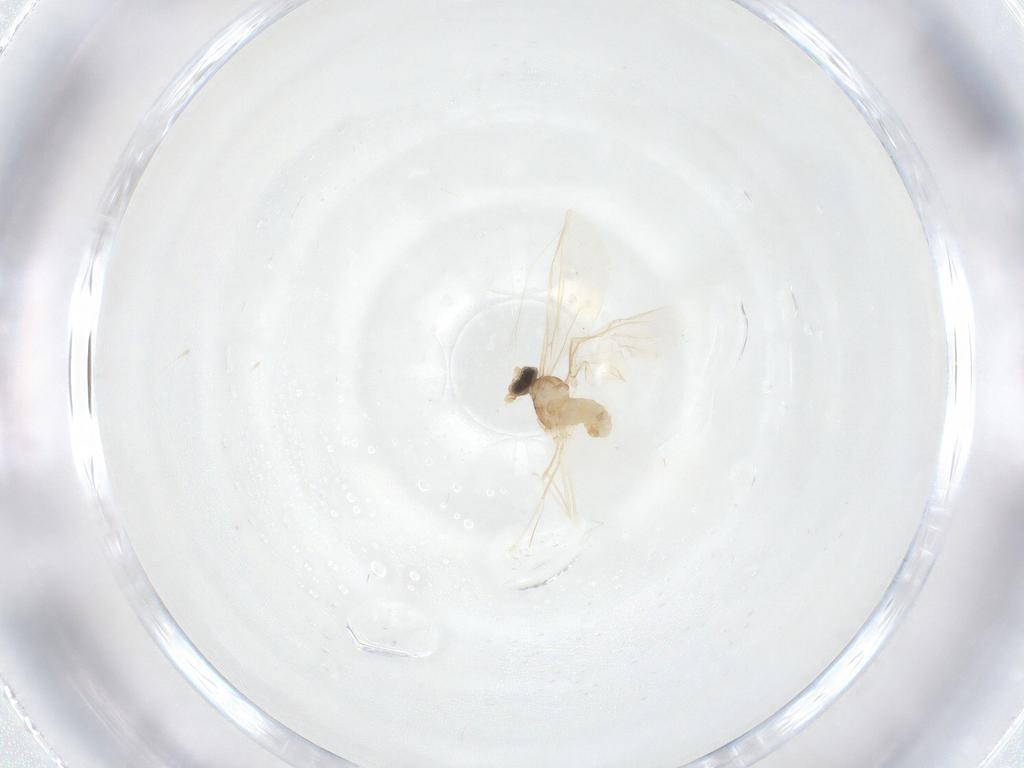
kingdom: Animalia
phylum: Arthropoda
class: Insecta
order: Diptera
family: Cecidomyiidae
